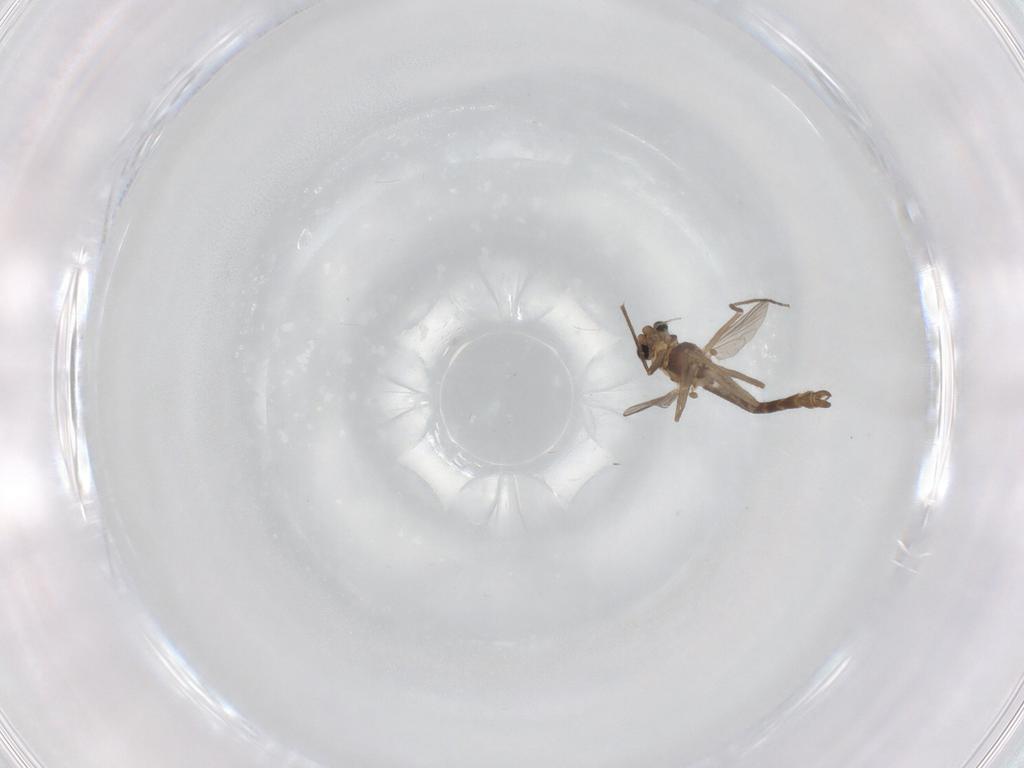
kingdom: Animalia
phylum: Arthropoda
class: Insecta
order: Diptera
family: Chironomidae
